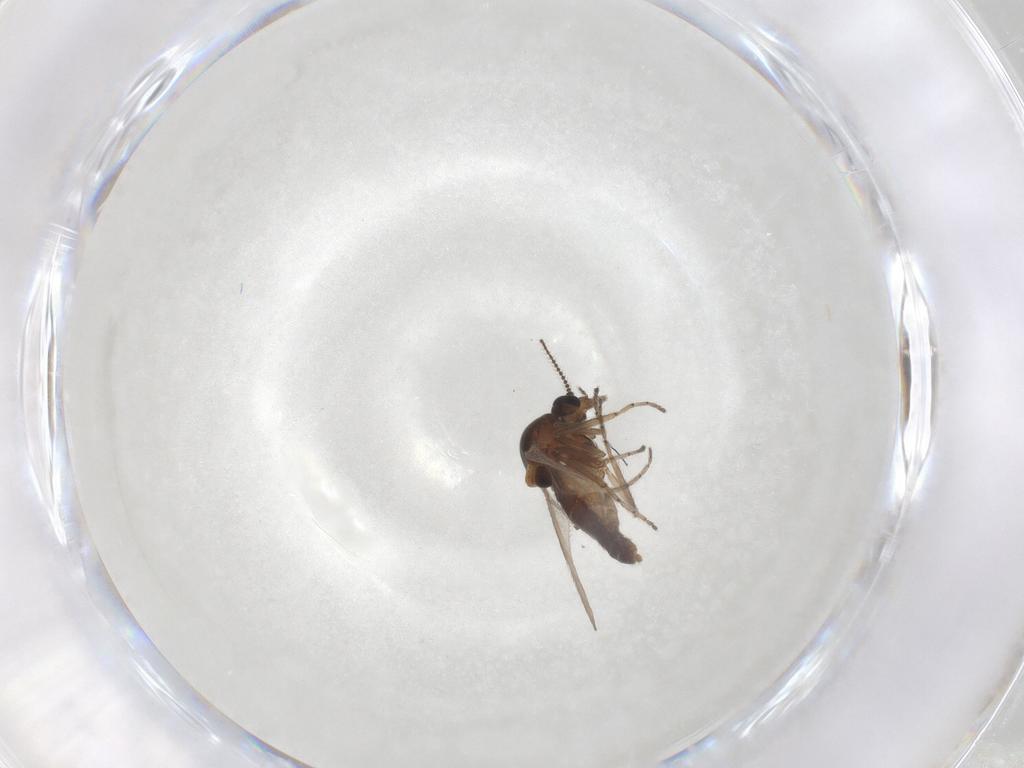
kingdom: Animalia
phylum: Arthropoda
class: Insecta
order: Diptera
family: Ceratopogonidae
